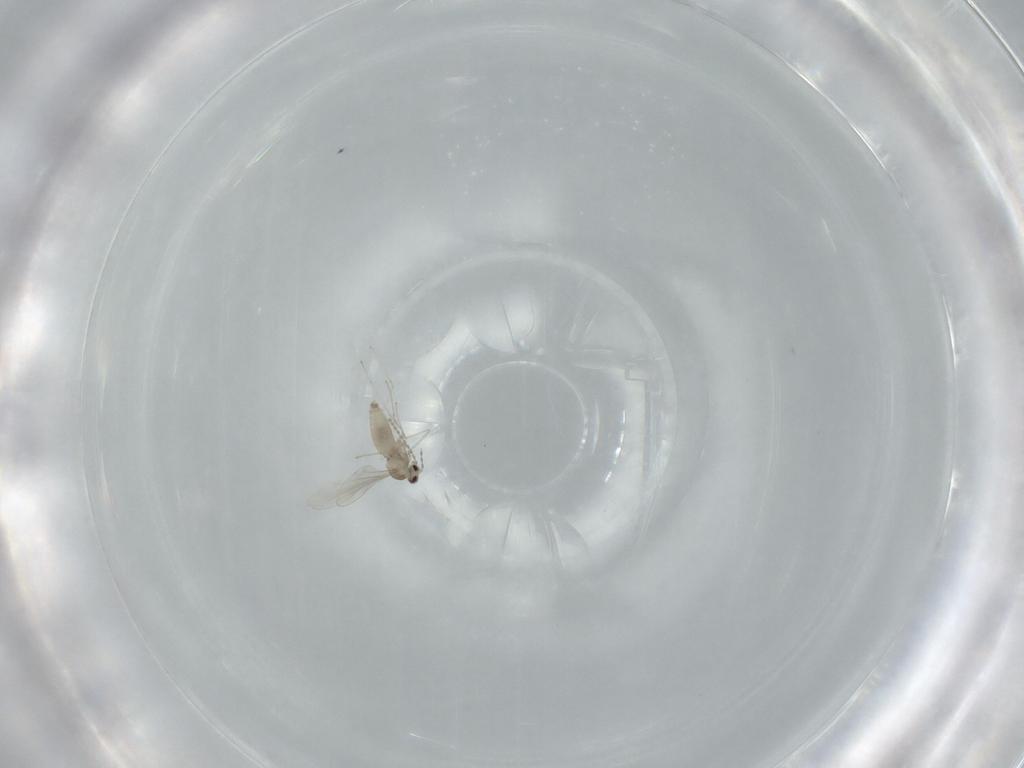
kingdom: Animalia
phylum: Arthropoda
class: Insecta
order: Diptera
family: Cecidomyiidae
